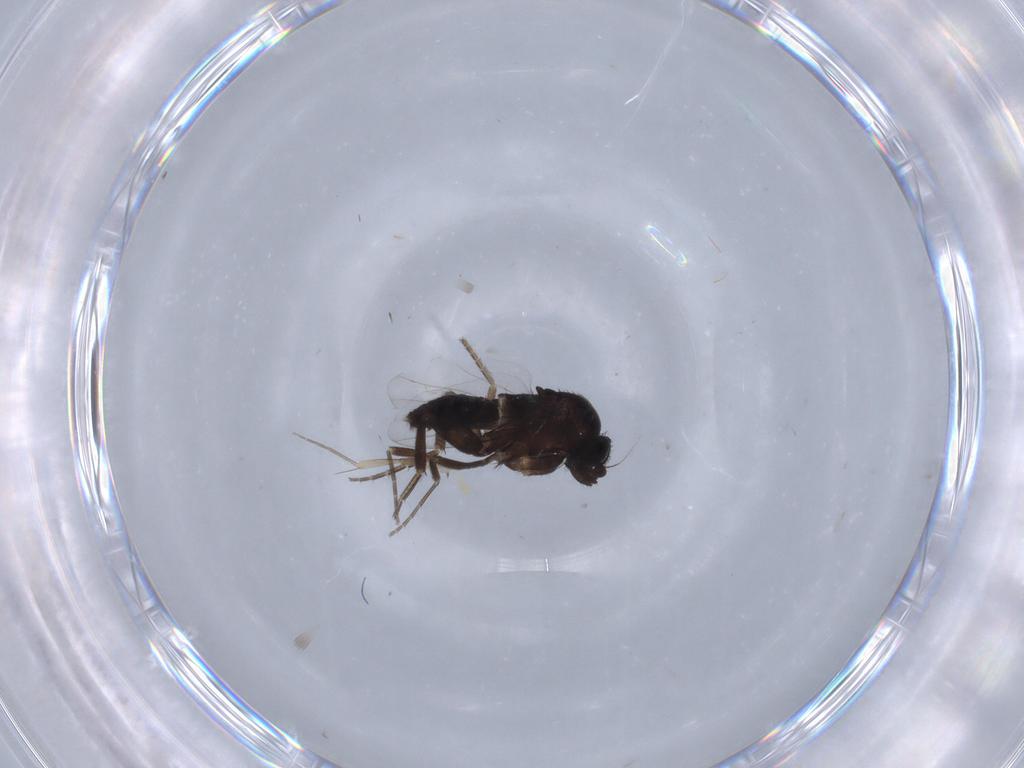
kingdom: Animalia
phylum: Arthropoda
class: Insecta
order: Diptera
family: Phoridae
